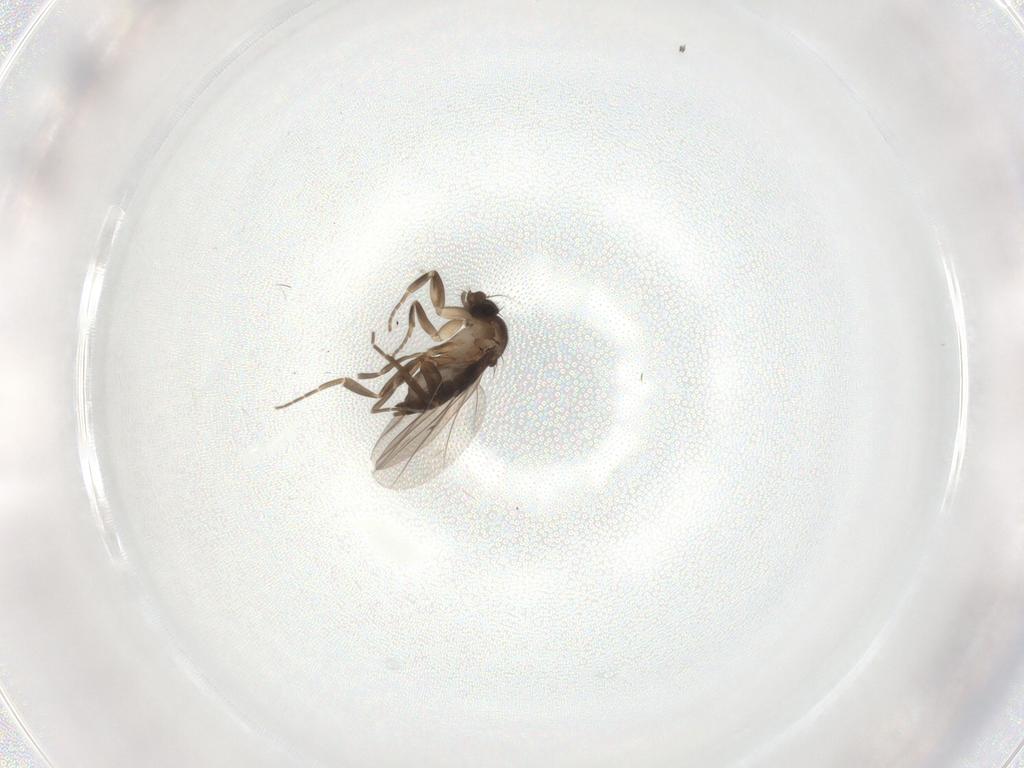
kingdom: Animalia
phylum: Arthropoda
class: Insecta
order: Diptera
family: Phoridae
